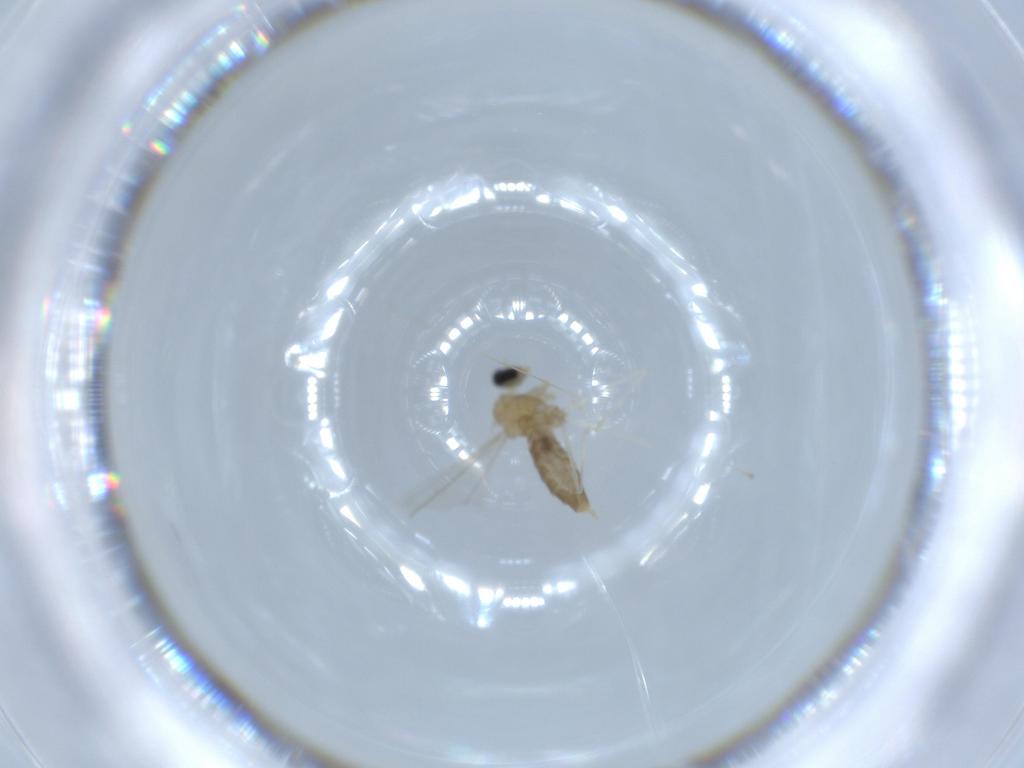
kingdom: Animalia
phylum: Arthropoda
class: Insecta
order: Diptera
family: Cecidomyiidae
